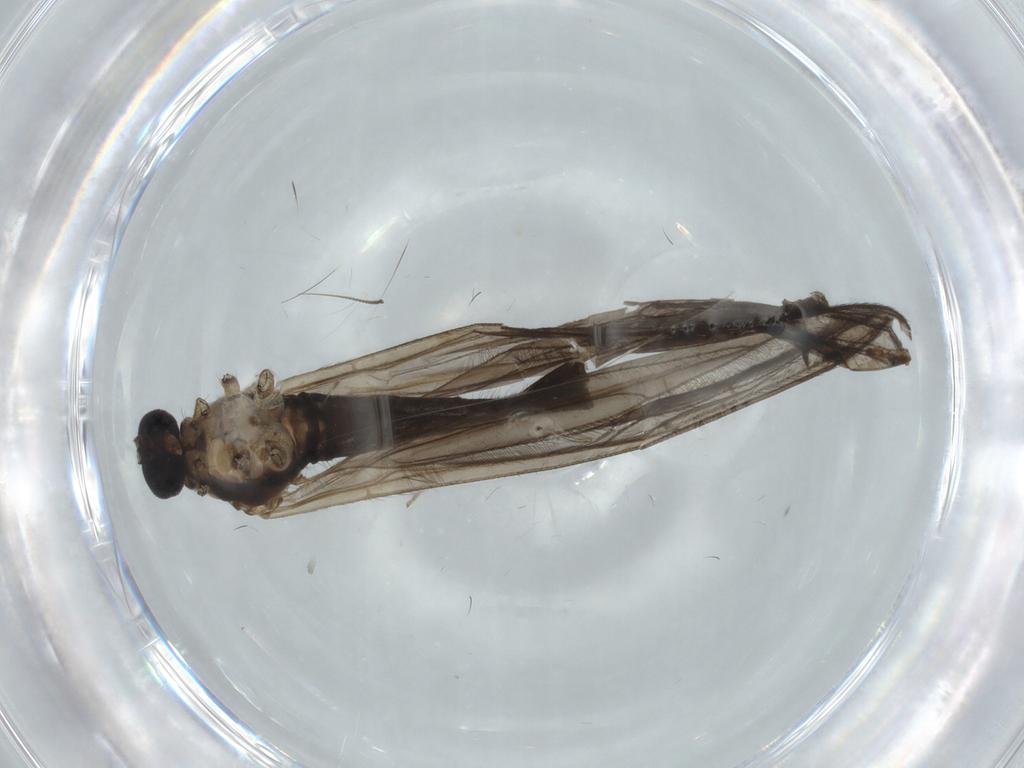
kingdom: Animalia
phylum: Arthropoda
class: Insecta
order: Diptera
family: Cecidomyiidae
